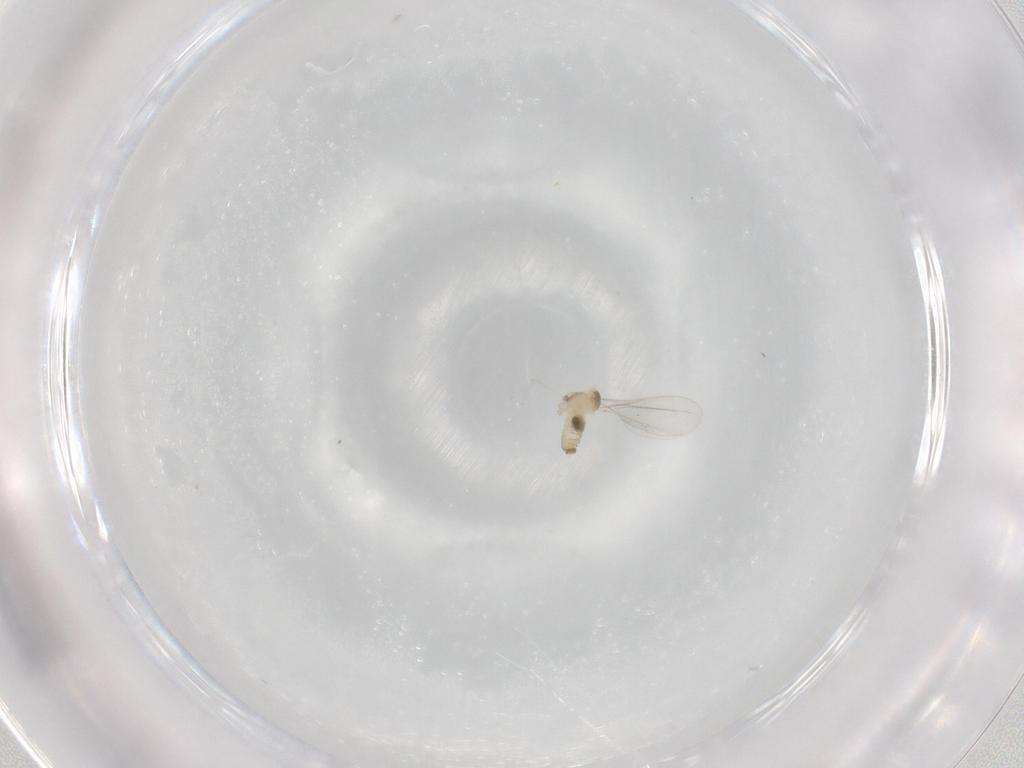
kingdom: Animalia
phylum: Arthropoda
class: Insecta
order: Diptera
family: Cecidomyiidae
